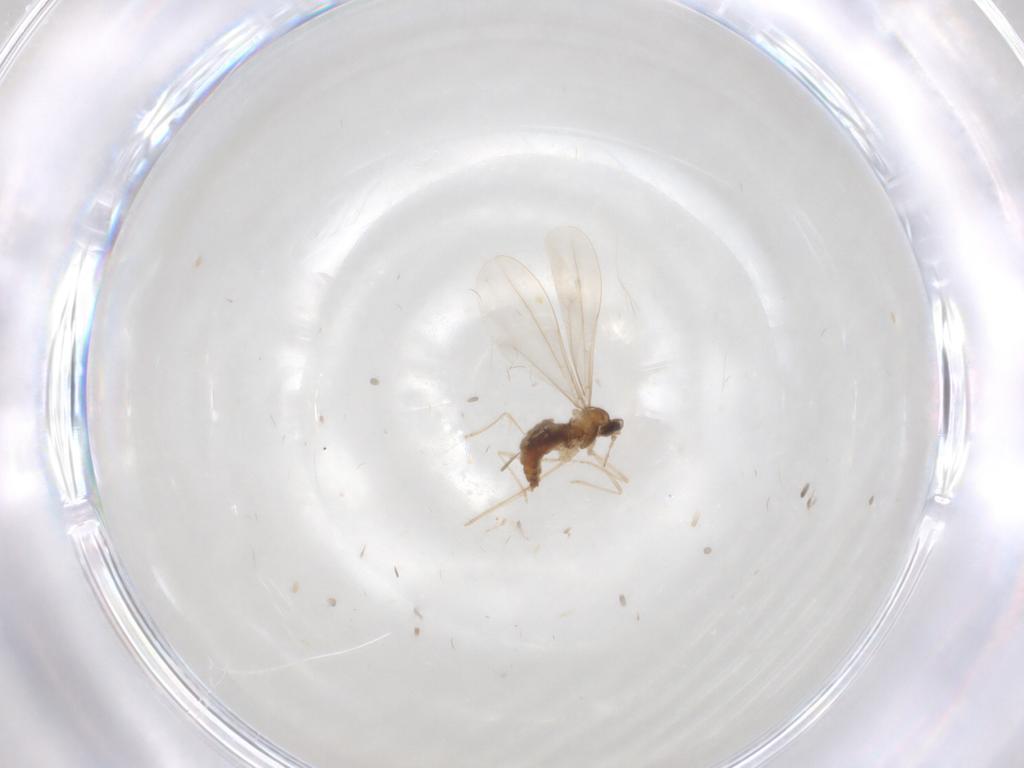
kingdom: Animalia
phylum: Arthropoda
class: Insecta
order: Diptera
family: Cecidomyiidae
